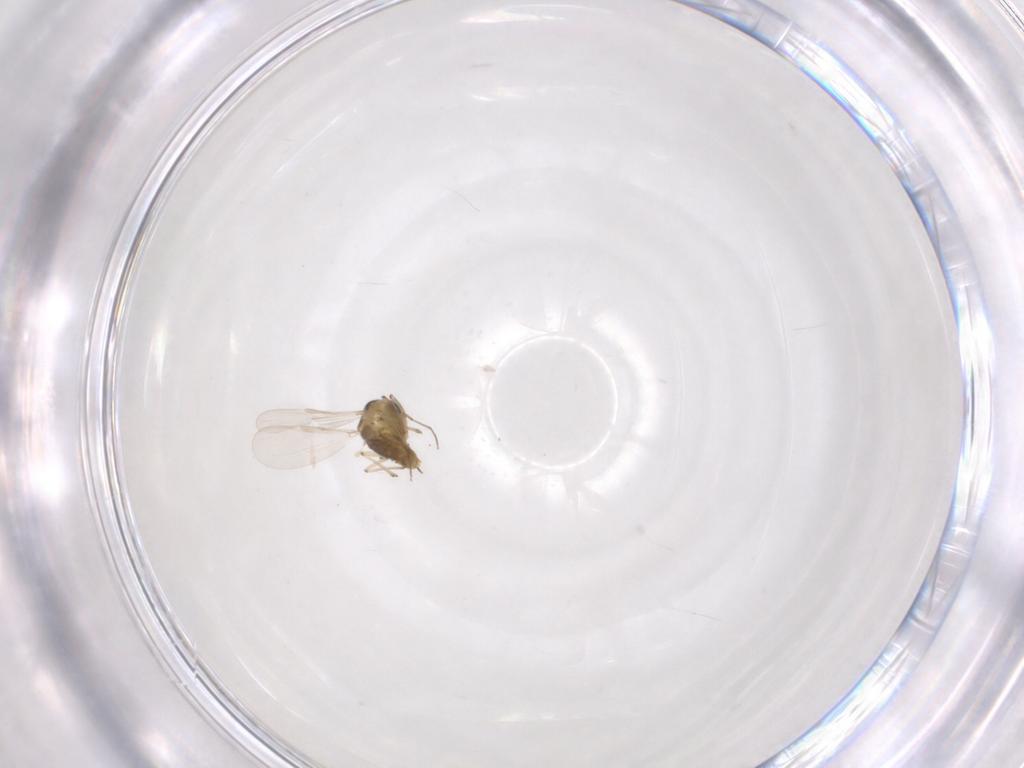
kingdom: Animalia
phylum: Arthropoda
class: Insecta
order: Diptera
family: Chironomidae
